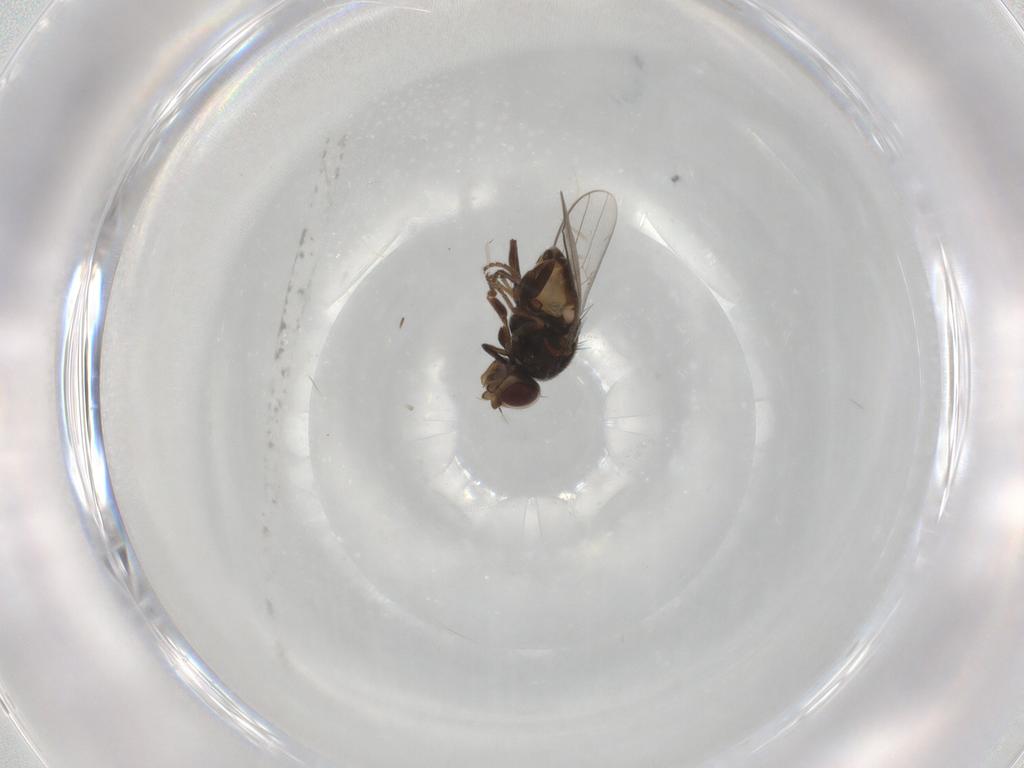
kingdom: Animalia
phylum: Arthropoda
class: Insecta
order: Diptera
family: Chloropidae
